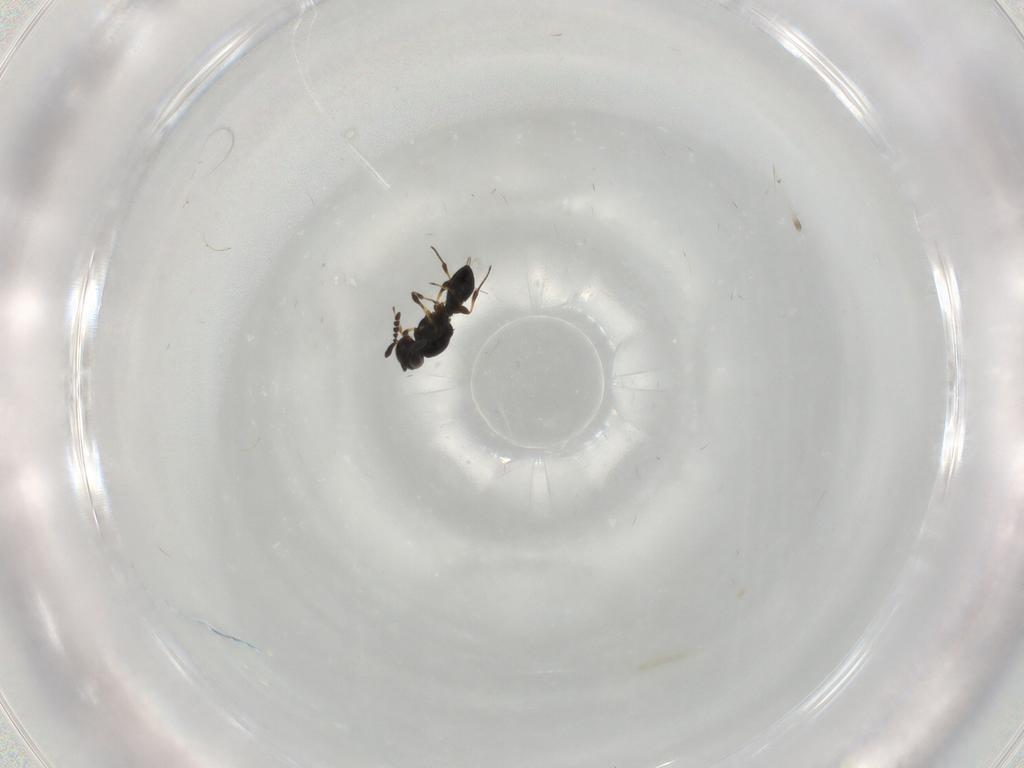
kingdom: Animalia
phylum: Arthropoda
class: Insecta
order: Hymenoptera
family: Platygastridae
